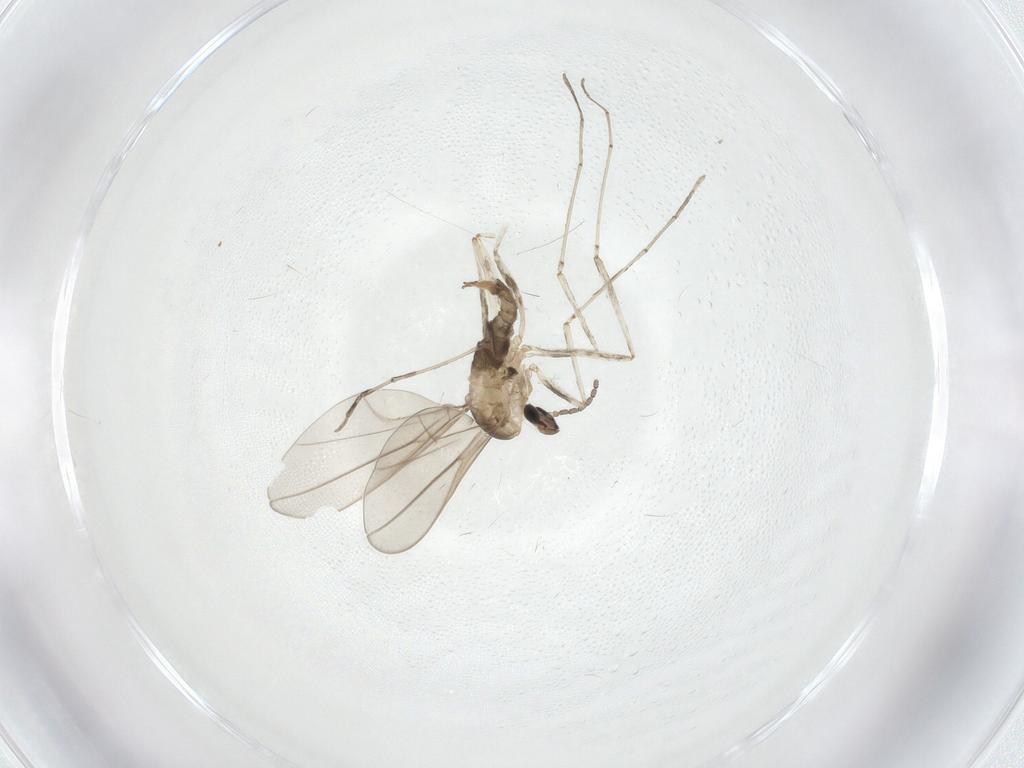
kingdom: Animalia
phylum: Arthropoda
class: Insecta
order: Diptera
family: Cecidomyiidae
